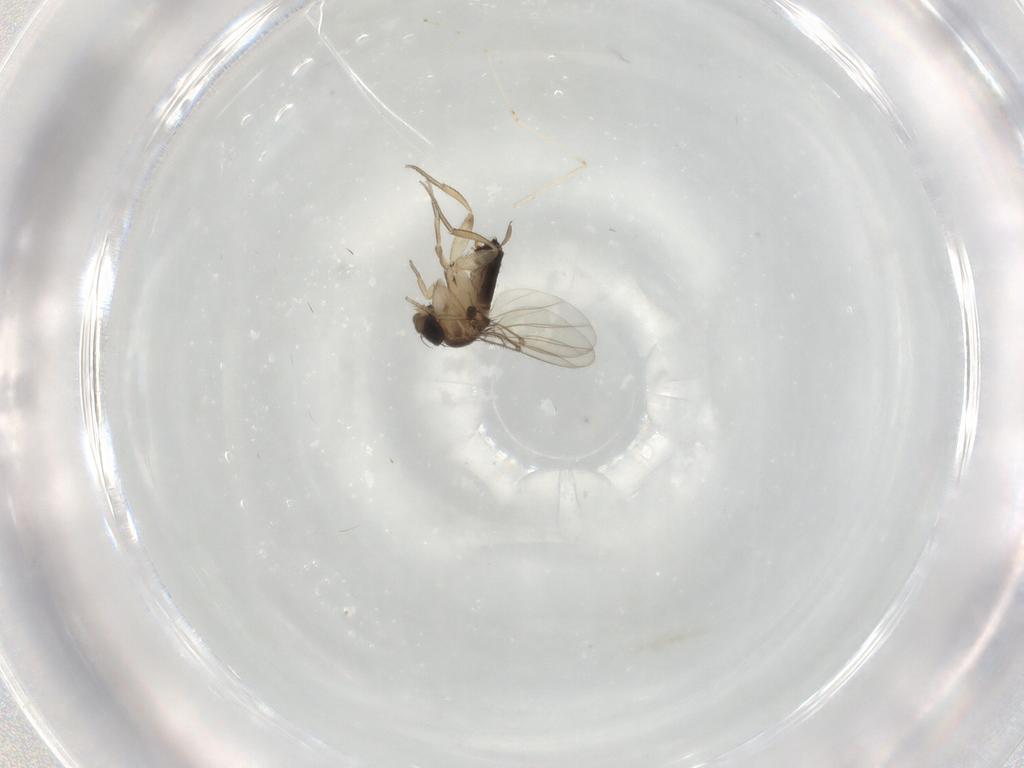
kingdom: Animalia
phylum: Arthropoda
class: Insecta
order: Diptera
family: Cecidomyiidae
